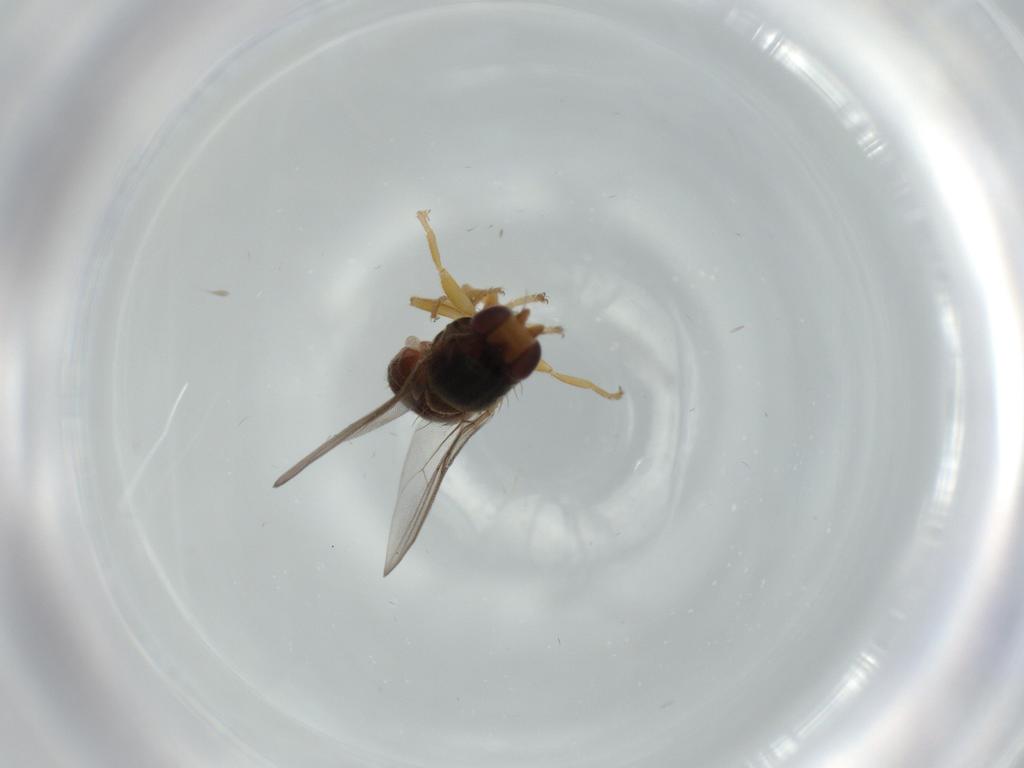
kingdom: Animalia
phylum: Arthropoda
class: Insecta
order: Diptera
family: Chloropidae
